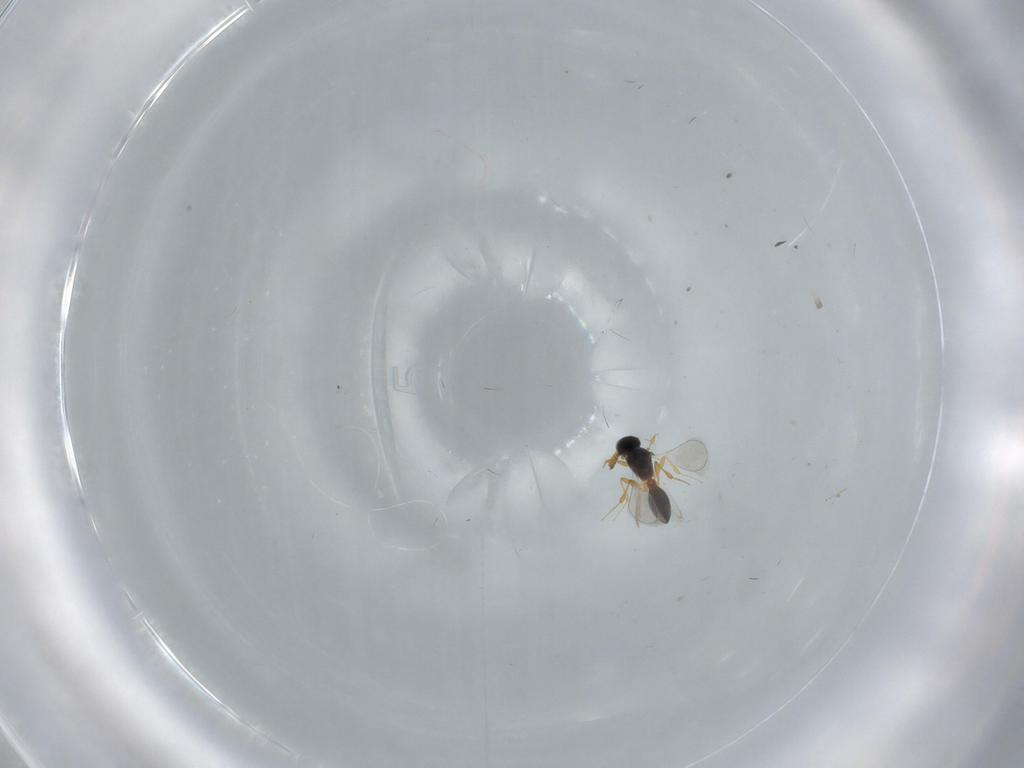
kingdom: Animalia
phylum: Arthropoda
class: Insecta
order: Hymenoptera
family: Platygastridae
